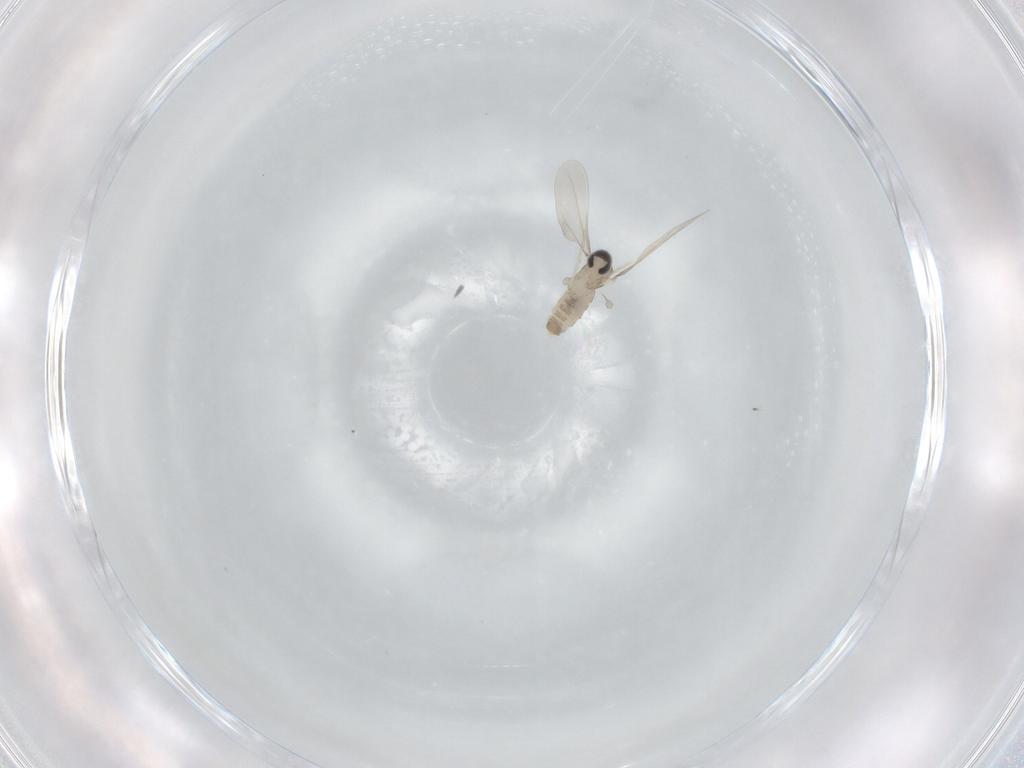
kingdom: Animalia
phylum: Arthropoda
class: Insecta
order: Diptera
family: Cecidomyiidae
